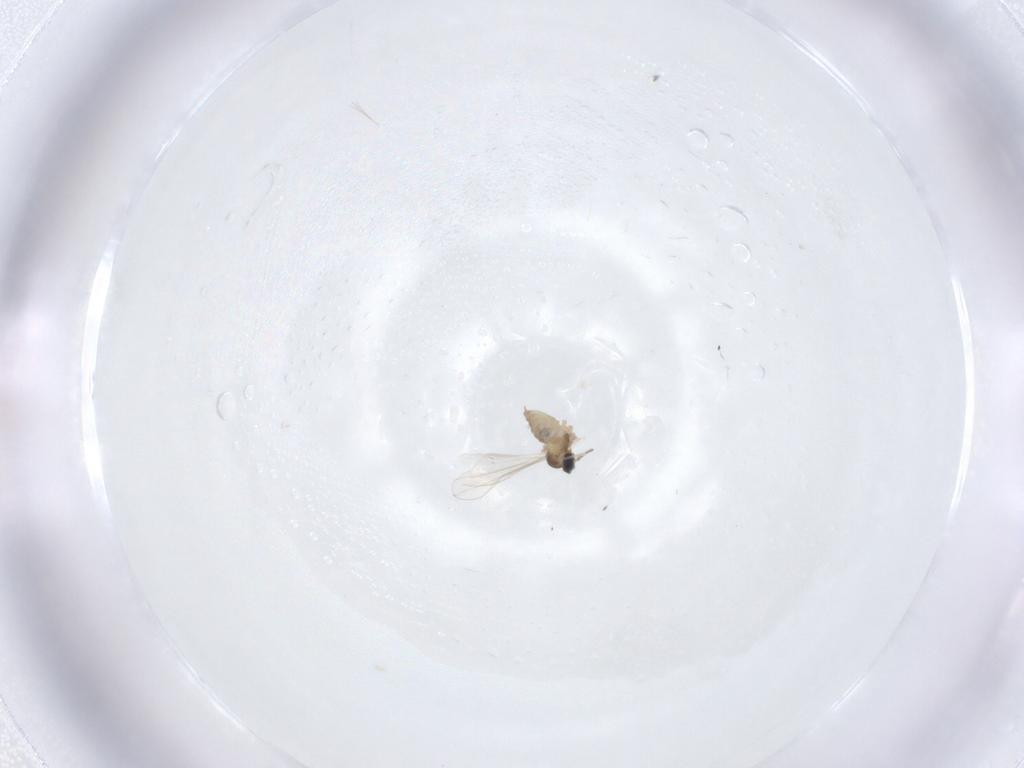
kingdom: Animalia
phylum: Arthropoda
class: Insecta
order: Diptera
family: Cecidomyiidae
